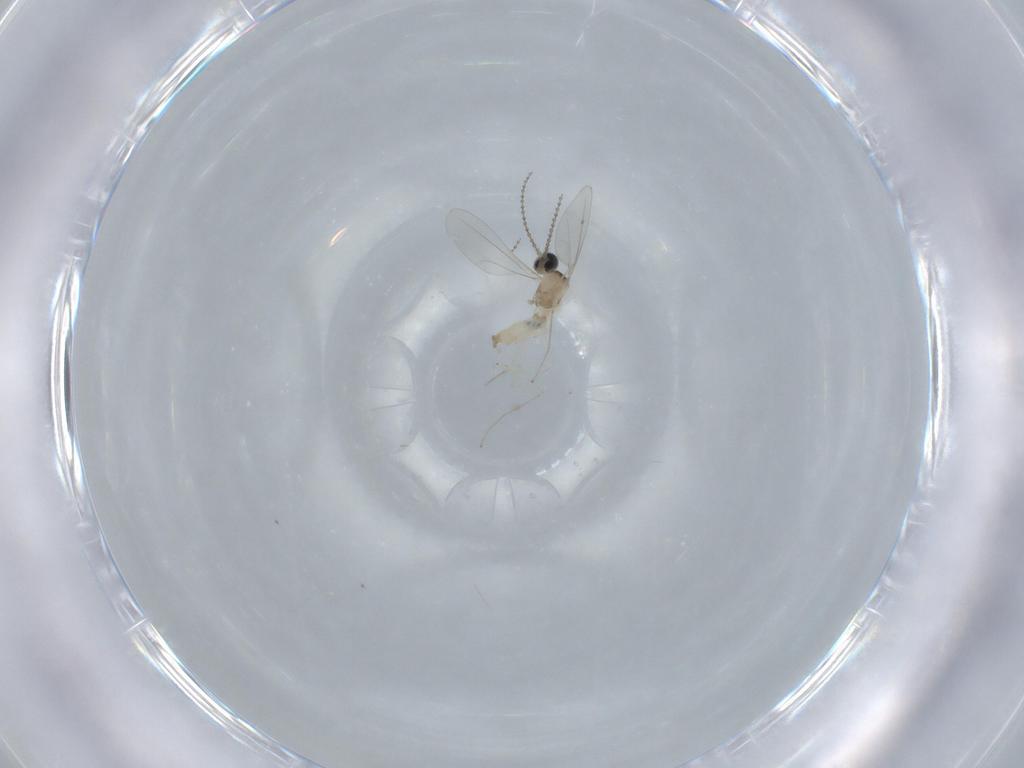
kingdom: Animalia
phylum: Arthropoda
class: Insecta
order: Diptera
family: Cecidomyiidae
